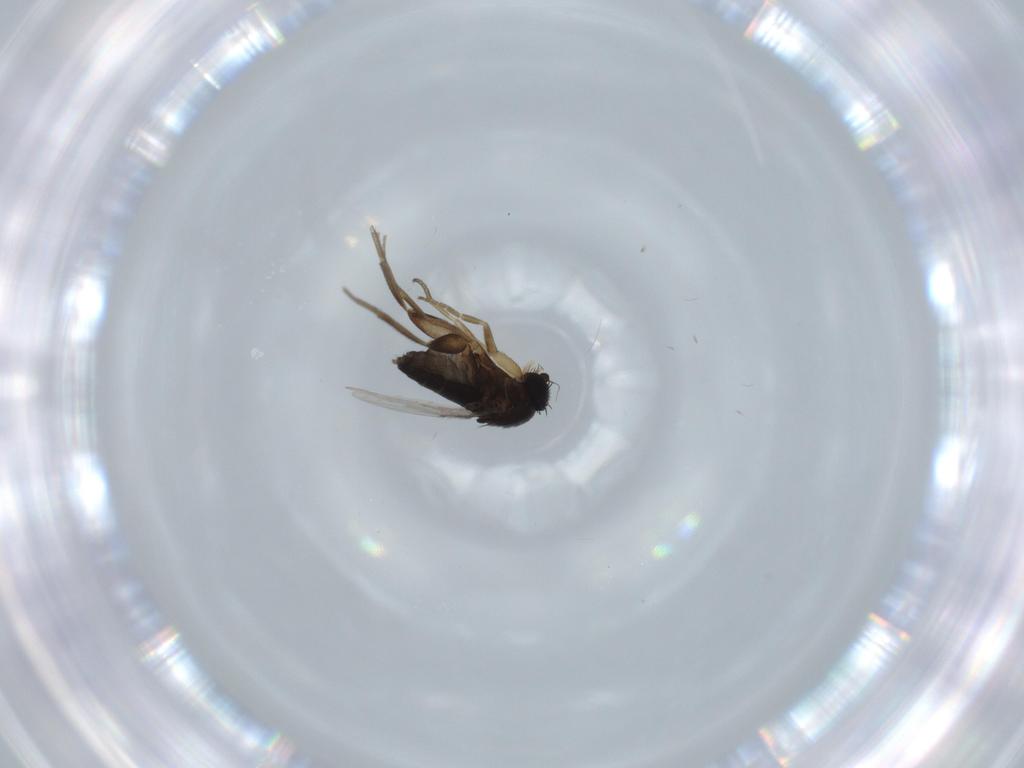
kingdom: Animalia
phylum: Arthropoda
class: Insecta
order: Diptera
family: Phoridae
